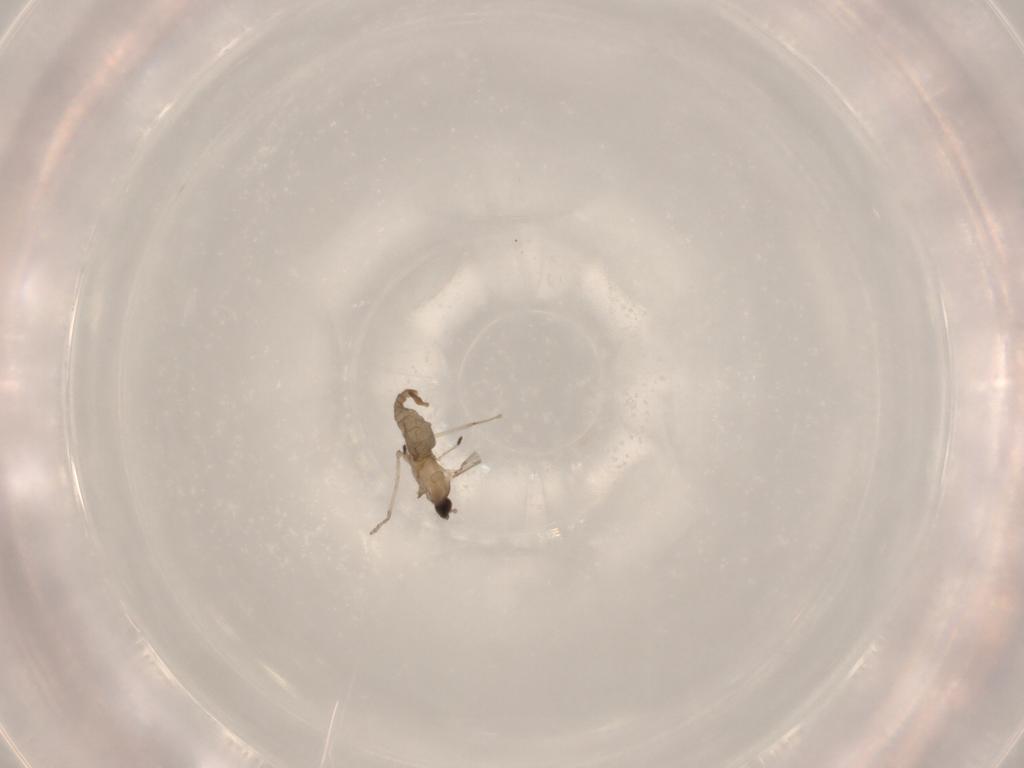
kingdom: Animalia
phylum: Arthropoda
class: Insecta
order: Diptera
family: Cecidomyiidae
